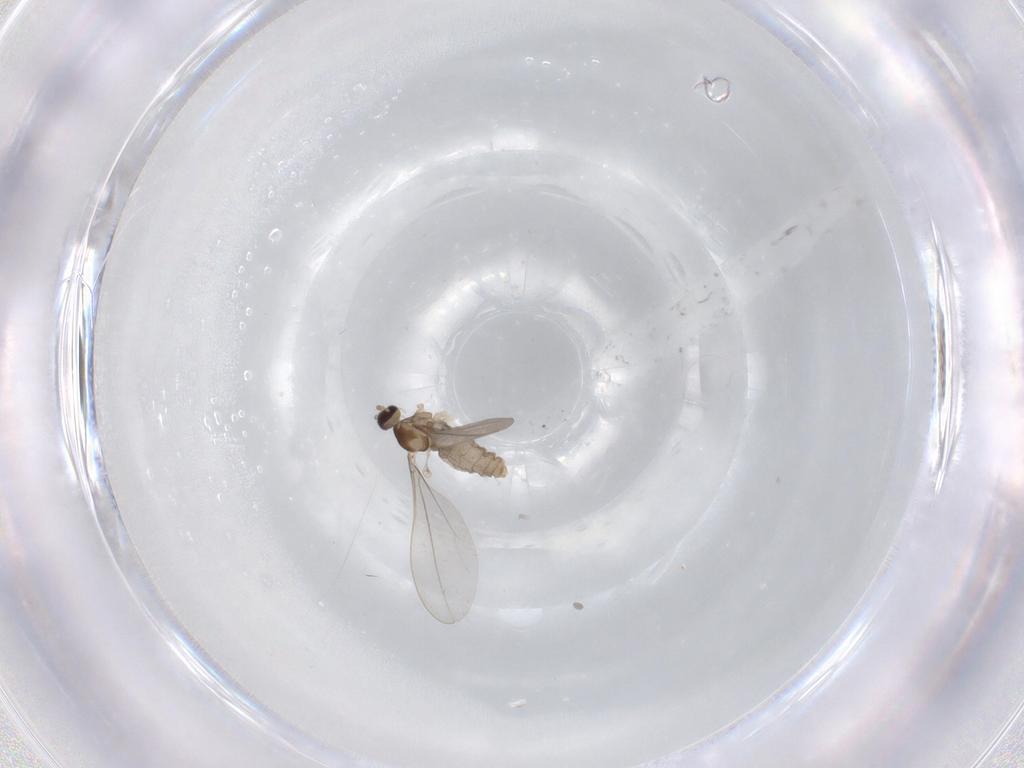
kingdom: Animalia
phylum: Arthropoda
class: Insecta
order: Diptera
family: Cecidomyiidae
